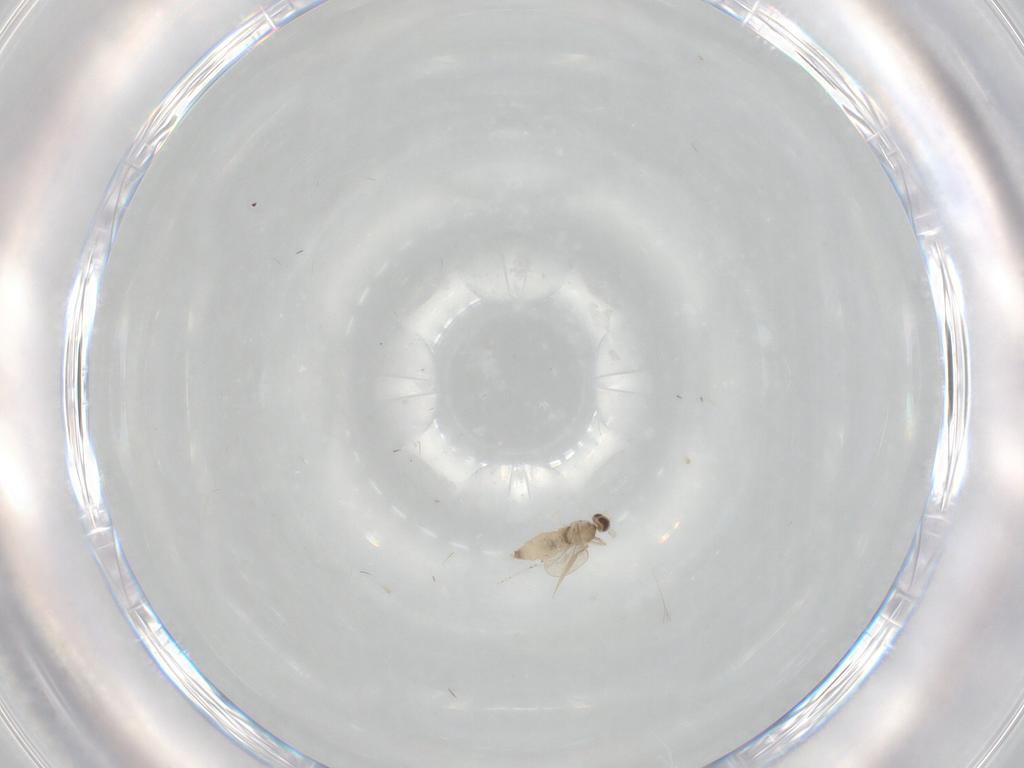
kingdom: Animalia
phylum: Arthropoda
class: Insecta
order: Diptera
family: Cecidomyiidae
